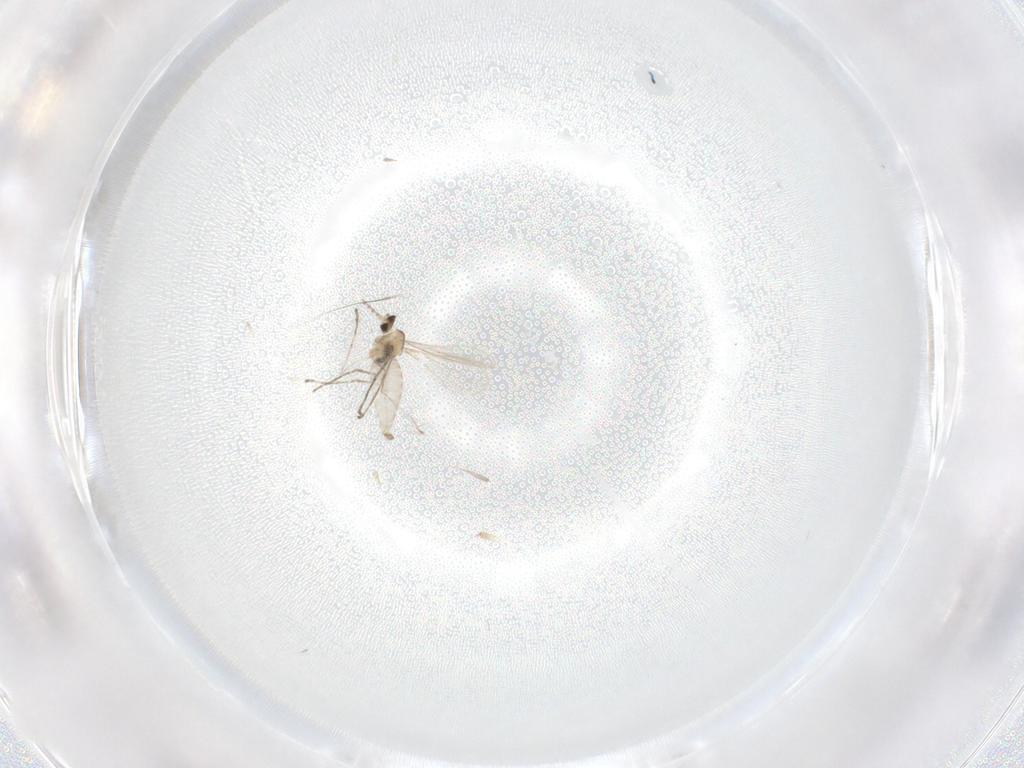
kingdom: Animalia
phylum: Arthropoda
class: Insecta
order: Diptera
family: Cecidomyiidae
